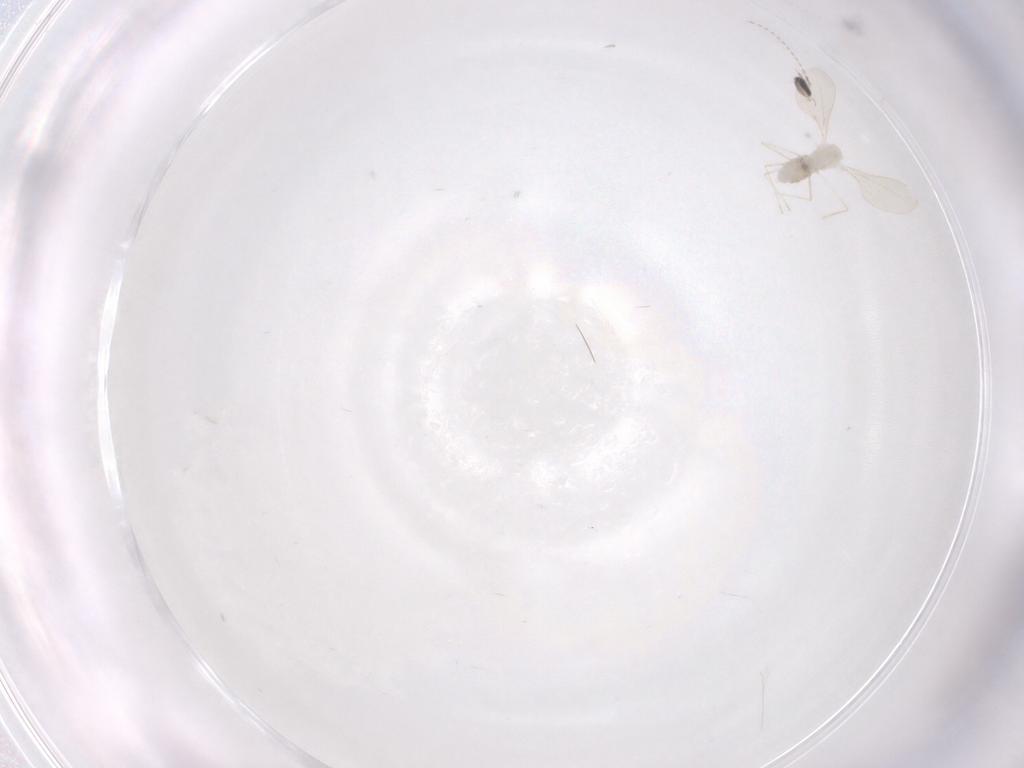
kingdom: Animalia
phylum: Arthropoda
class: Insecta
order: Diptera
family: Cecidomyiidae
